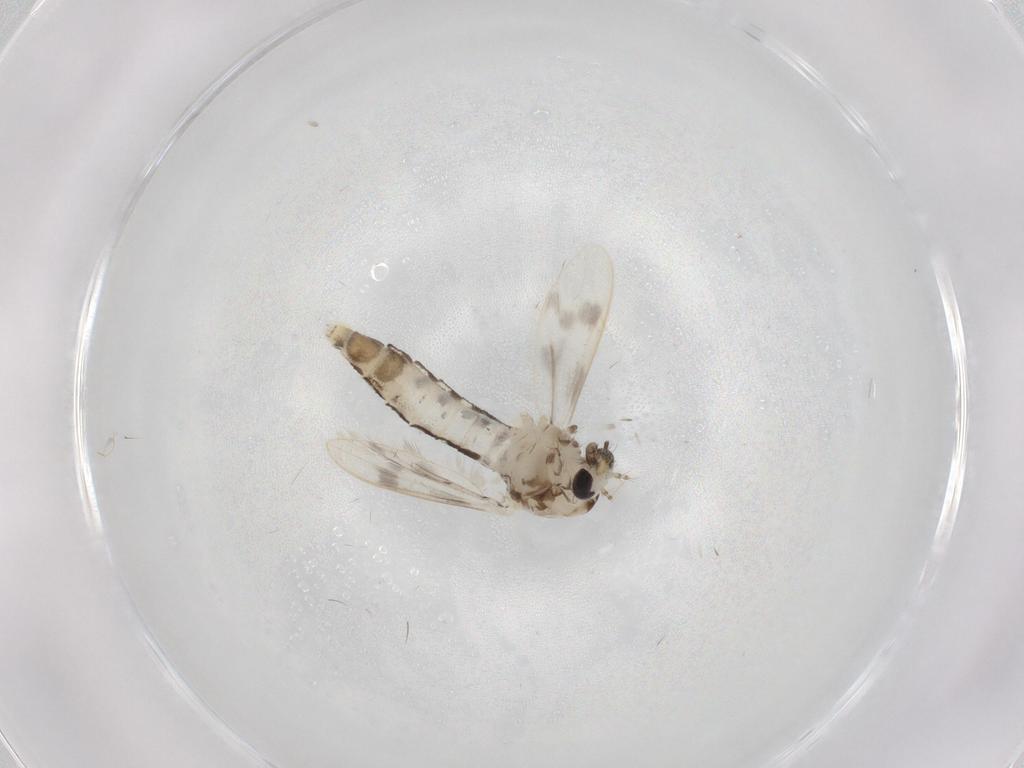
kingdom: Animalia
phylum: Arthropoda
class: Insecta
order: Diptera
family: Corethrellidae
